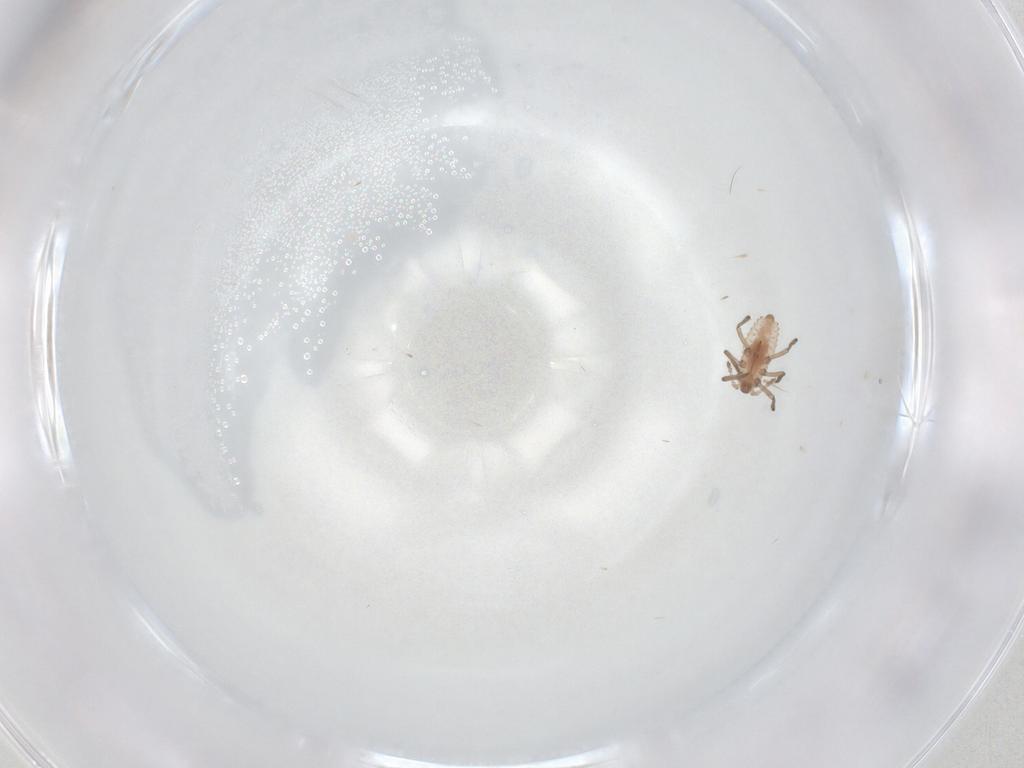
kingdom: Animalia
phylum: Arthropoda
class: Insecta
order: Hemiptera
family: Aphididae
